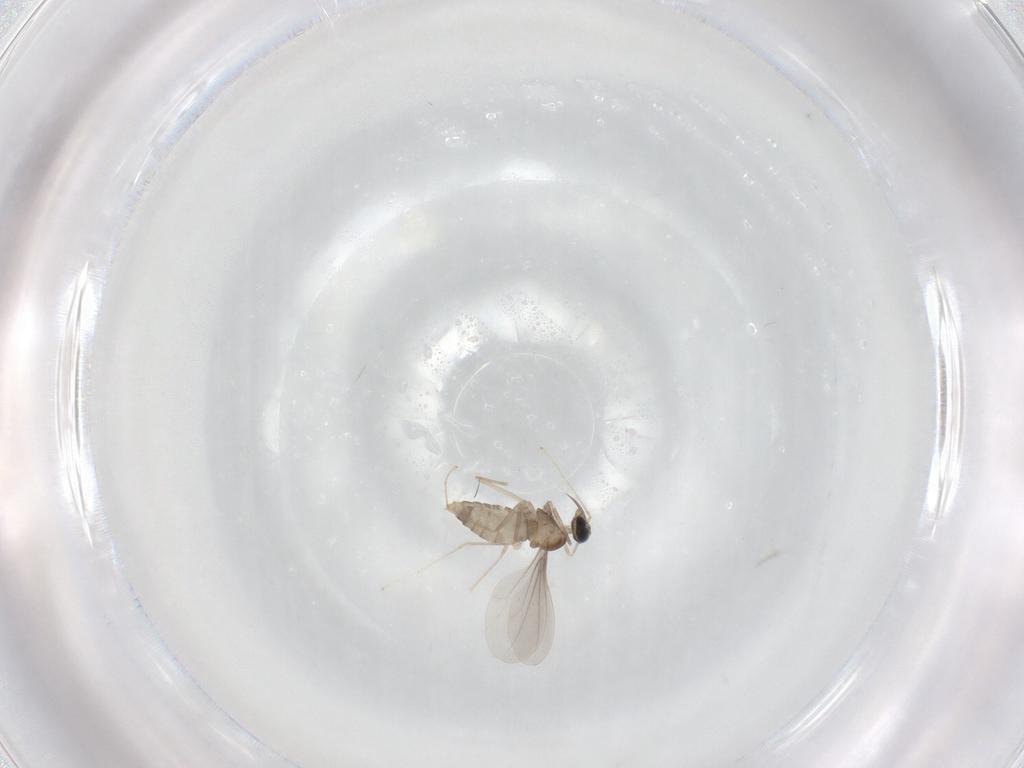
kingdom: Animalia
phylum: Arthropoda
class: Insecta
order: Diptera
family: Cecidomyiidae
